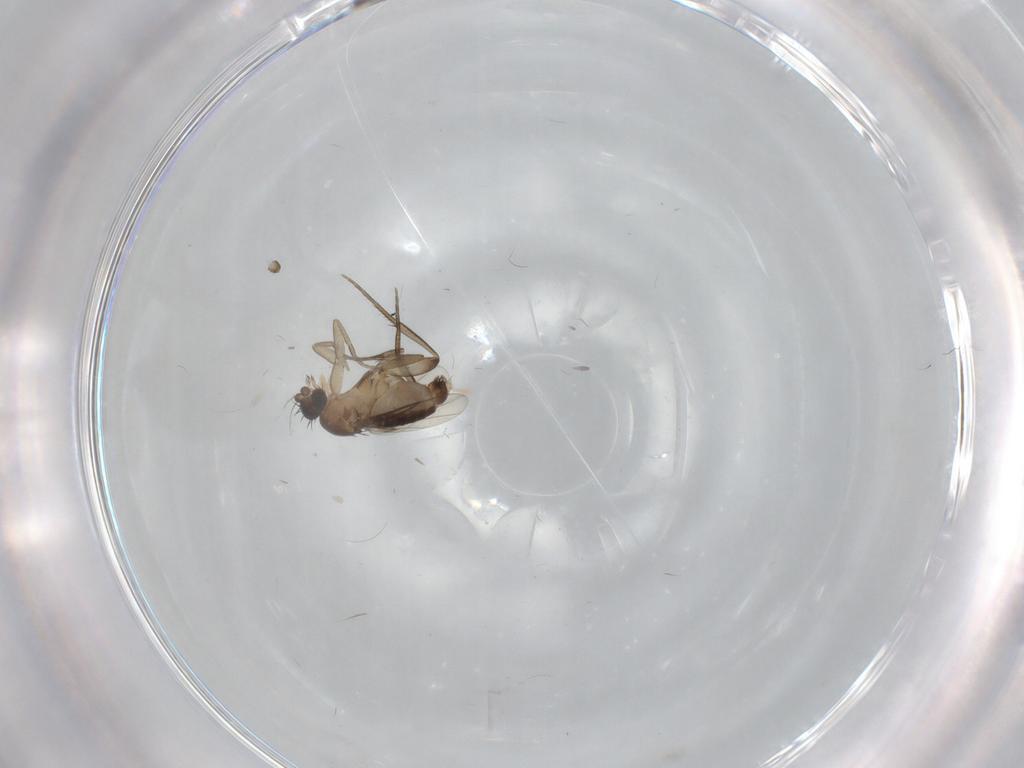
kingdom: Animalia
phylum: Arthropoda
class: Insecta
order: Diptera
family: Phoridae
